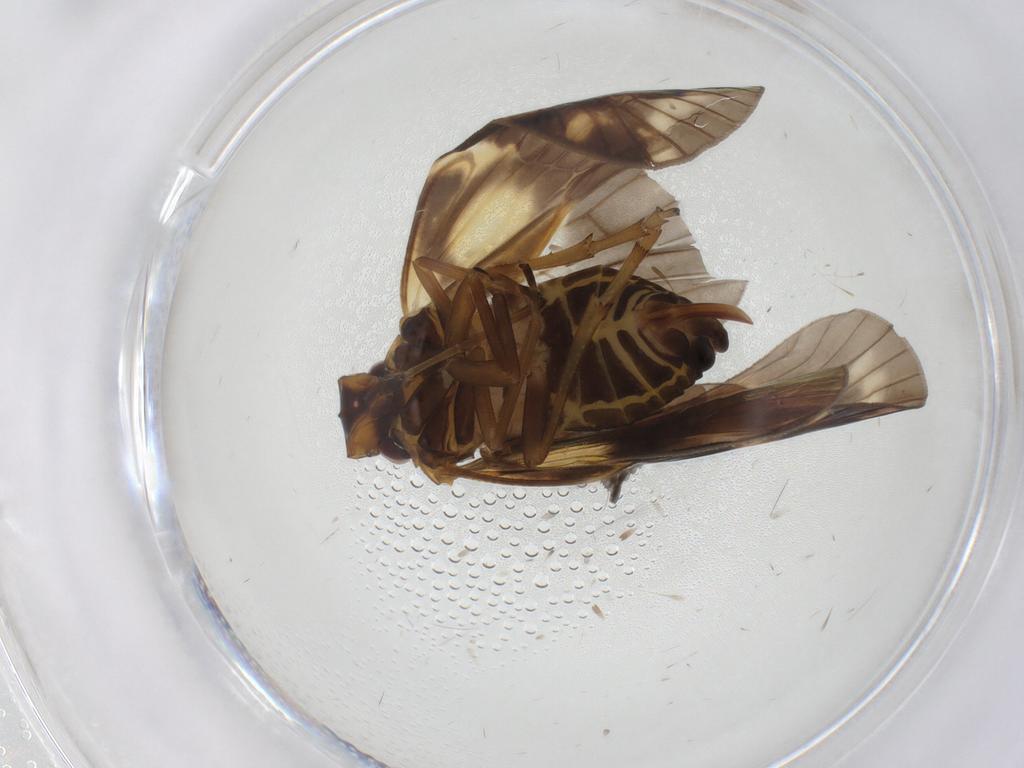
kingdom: Animalia
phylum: Arthropoda
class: Insecta
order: Hemiptera
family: Cixiidae
